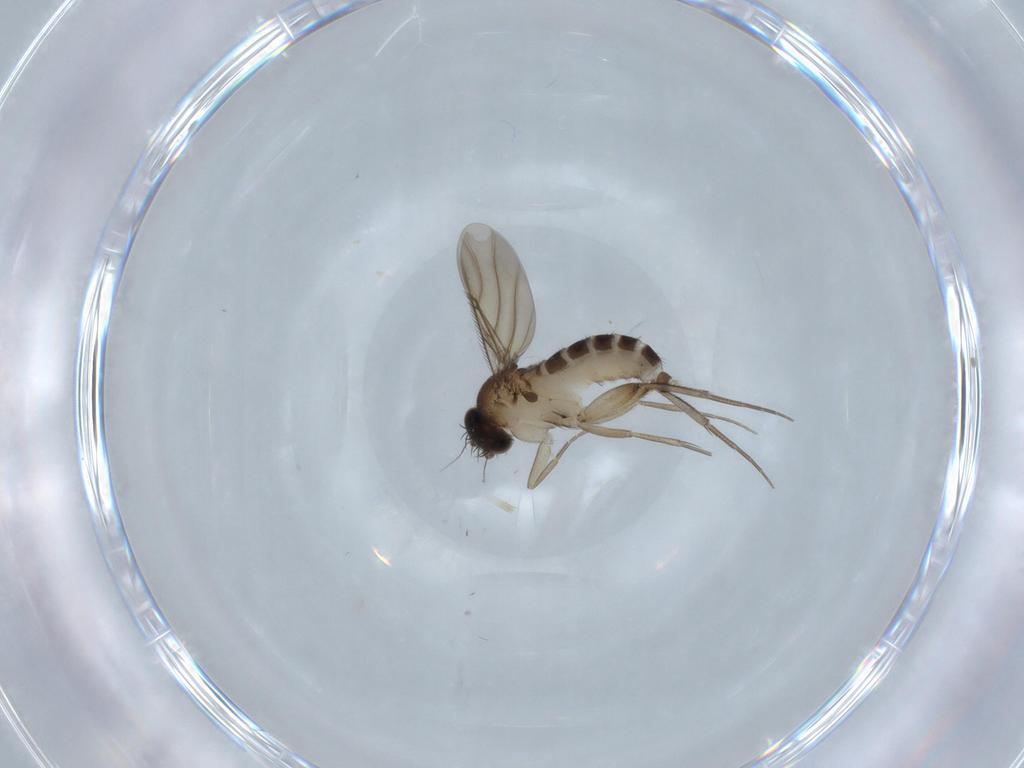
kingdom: Animalia
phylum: Arthropoda
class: Insecta
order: Diptera
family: Phoridae
